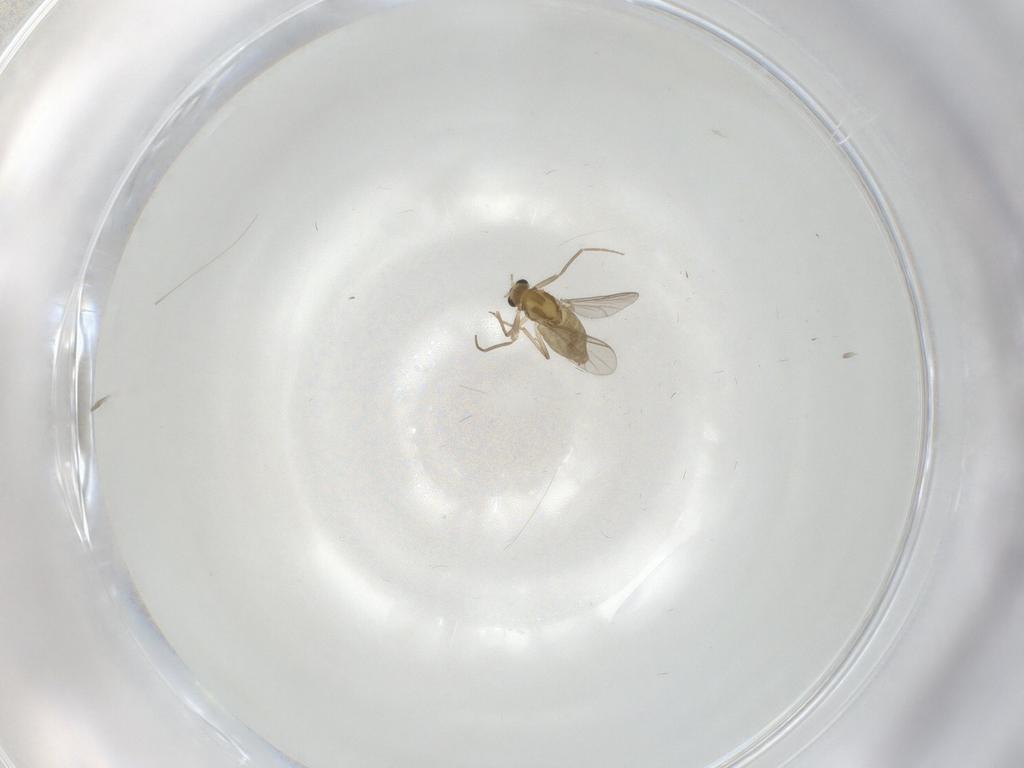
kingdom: Animalia
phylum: Arthropoda
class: Insecta
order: Diptera
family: Chironomidae
